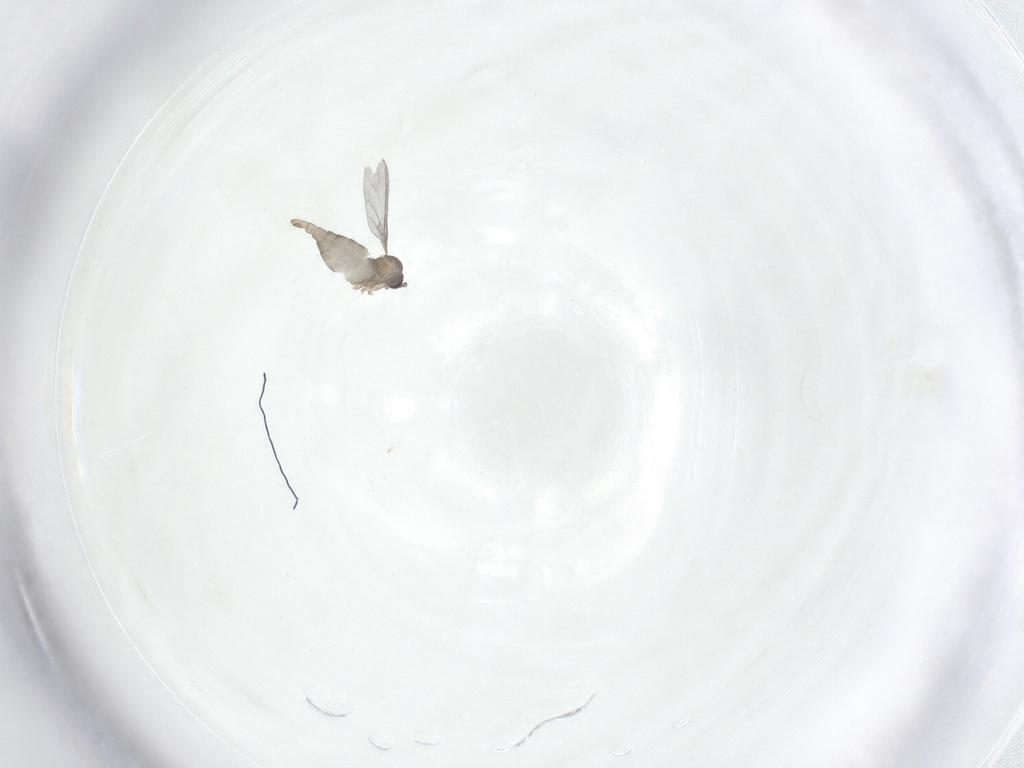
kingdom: Animalia
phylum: Arthropoda
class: Insecta
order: Diptera
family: Sciaridae
